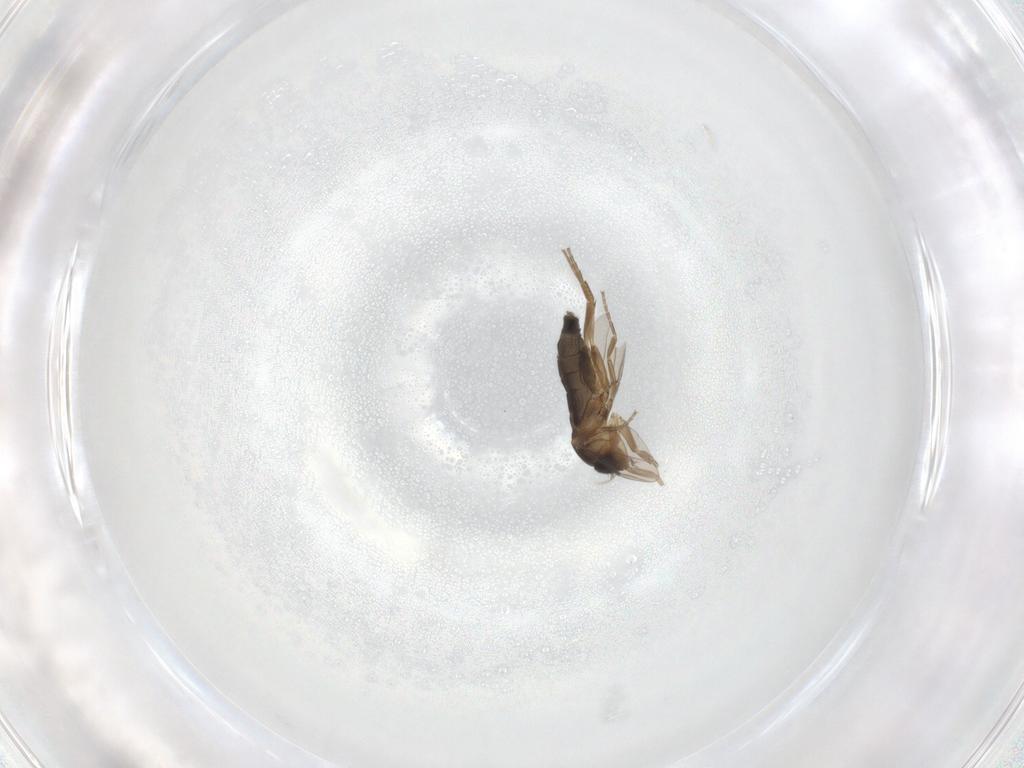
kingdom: Animalia
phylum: Arthropoda
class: Insecta
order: Diptera
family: Phoridae
